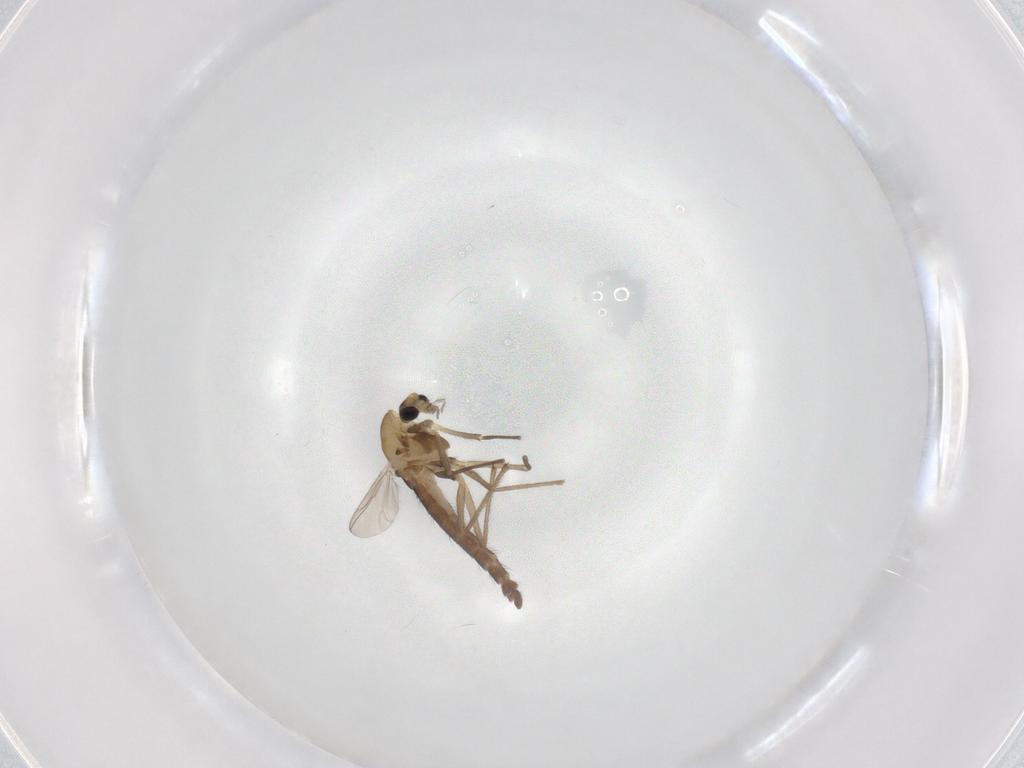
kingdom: Animalia
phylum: Arthropoda
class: Insecta
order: Diptera
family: Chironomidae
